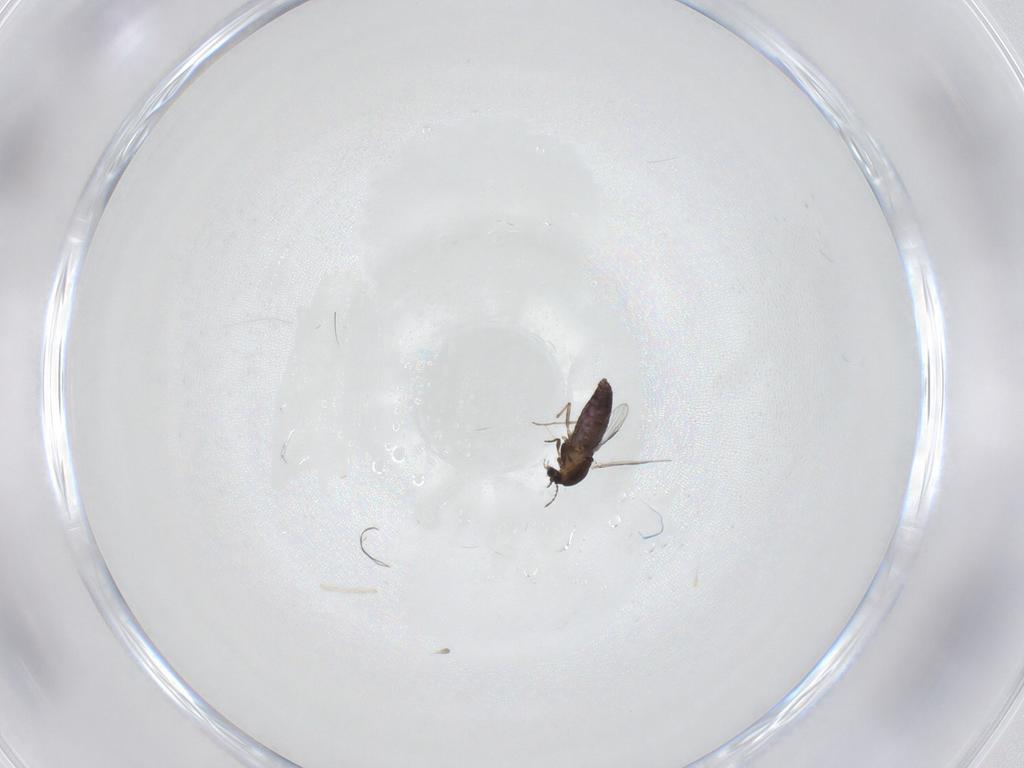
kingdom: Animalia
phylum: Arthropoda
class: Insecta
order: Diptera
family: Chironomidae
